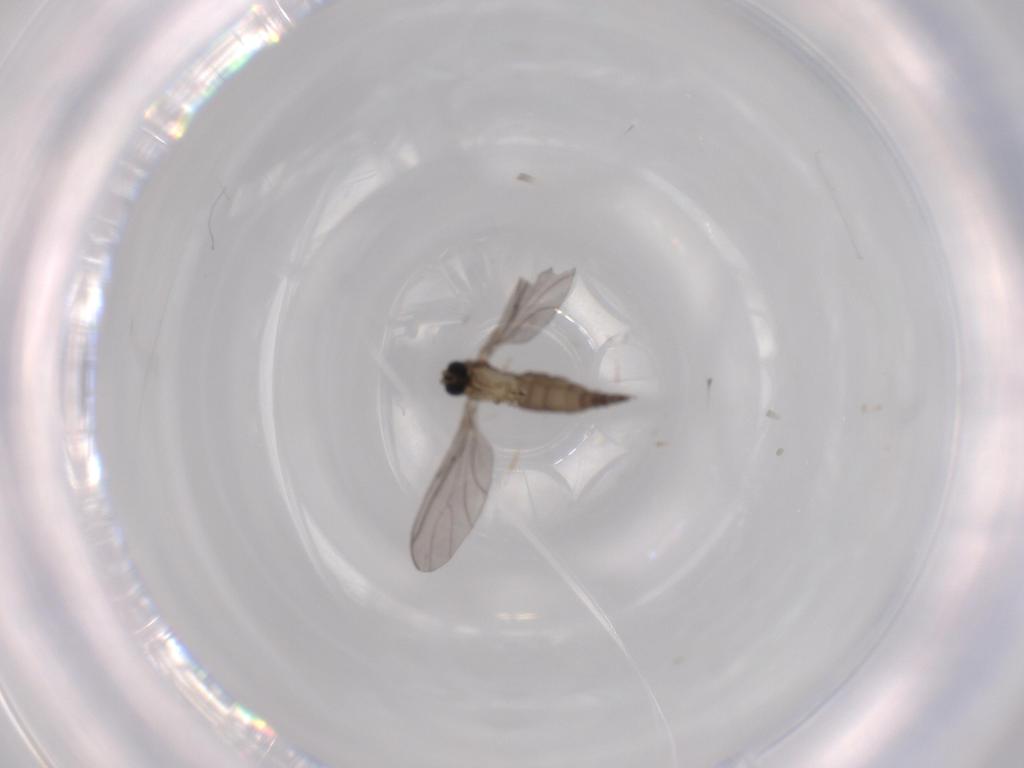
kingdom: Animalia
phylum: Arthropoda
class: Insecta
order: Diptera
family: Sciaridae
